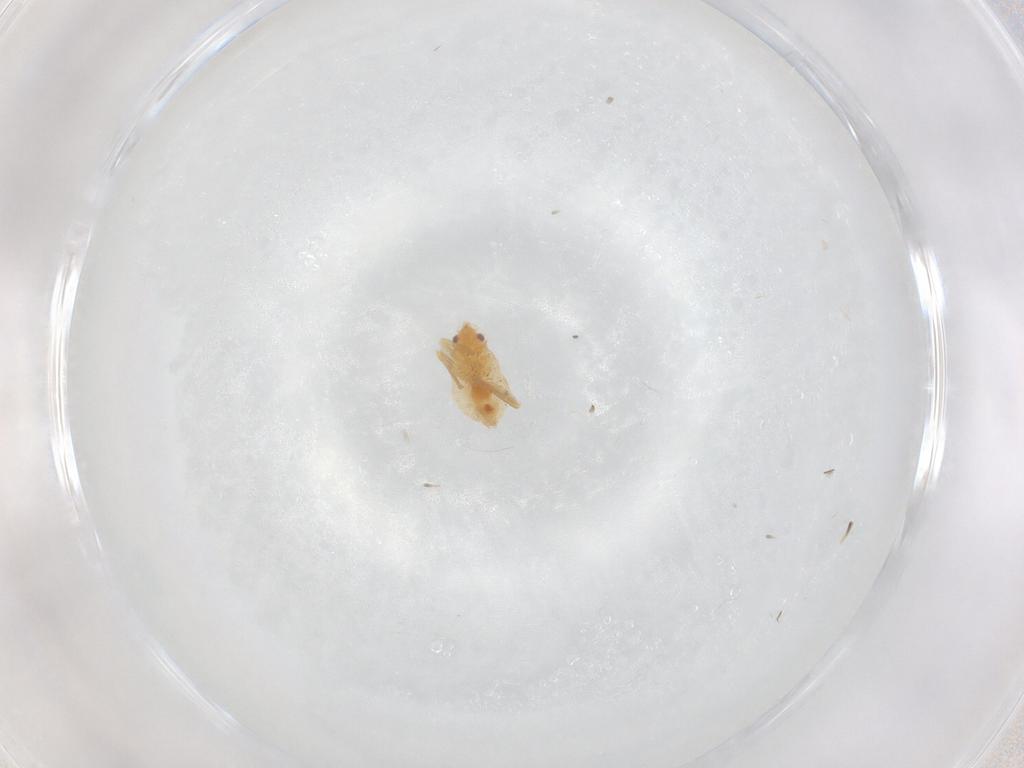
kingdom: Animalia
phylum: Arthropoda
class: Insecta
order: Hemiptera
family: Miridae
